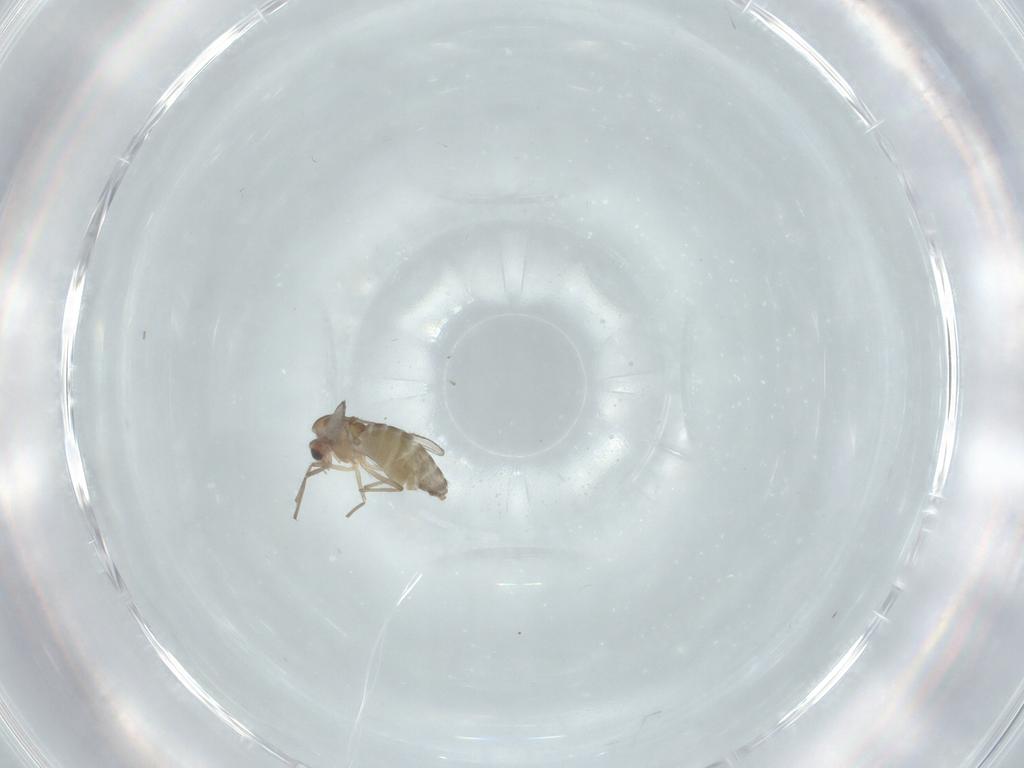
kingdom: Animalia
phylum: Arthropoda
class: Insecta
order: Diptera
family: Chironomidae
